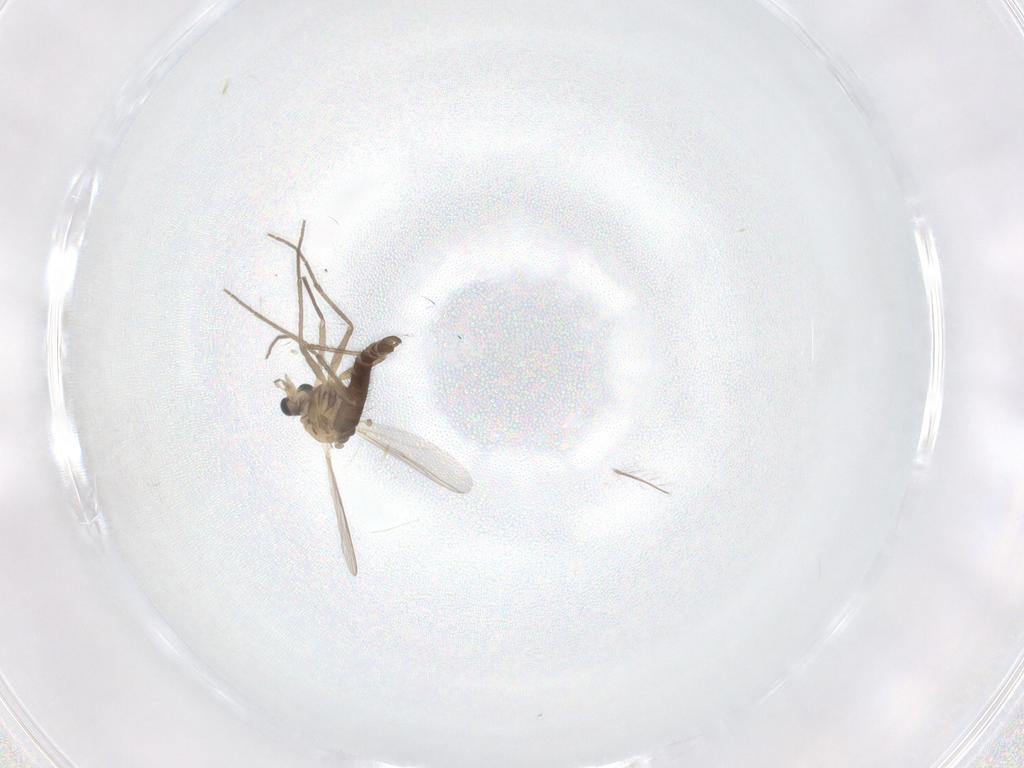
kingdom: Animalia
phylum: Arthropoda
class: Insecta
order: Diptera
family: Chironomidae
